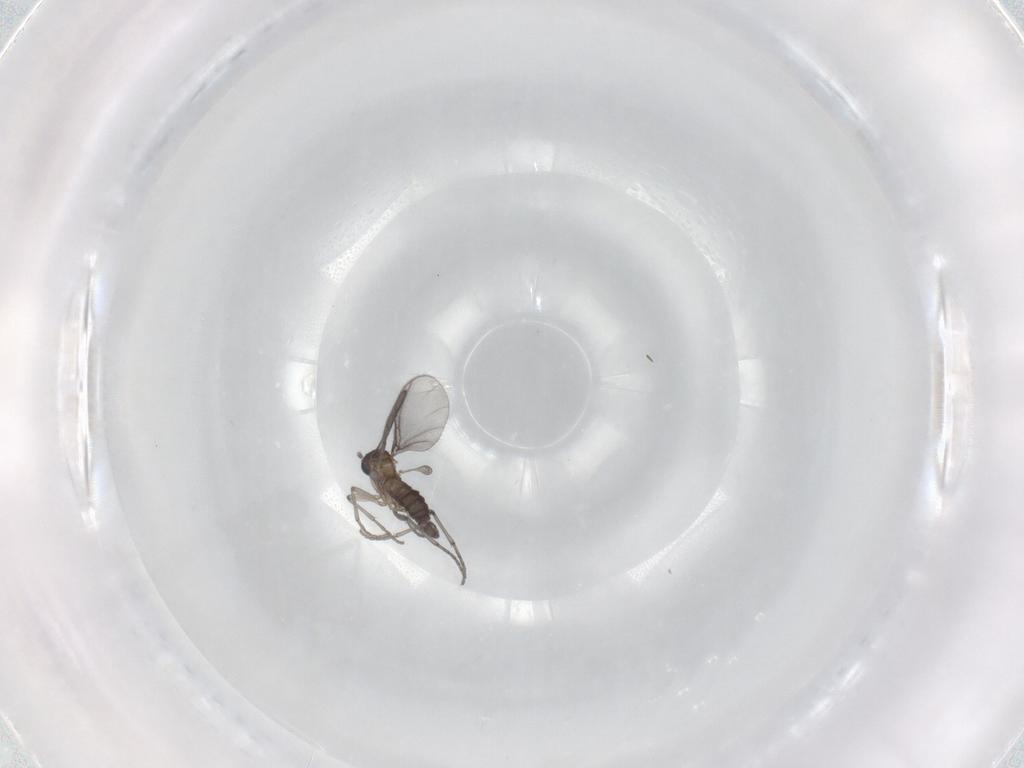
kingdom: Animalia
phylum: Arthropoda
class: Insecta
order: Diptera
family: Sciaridae
